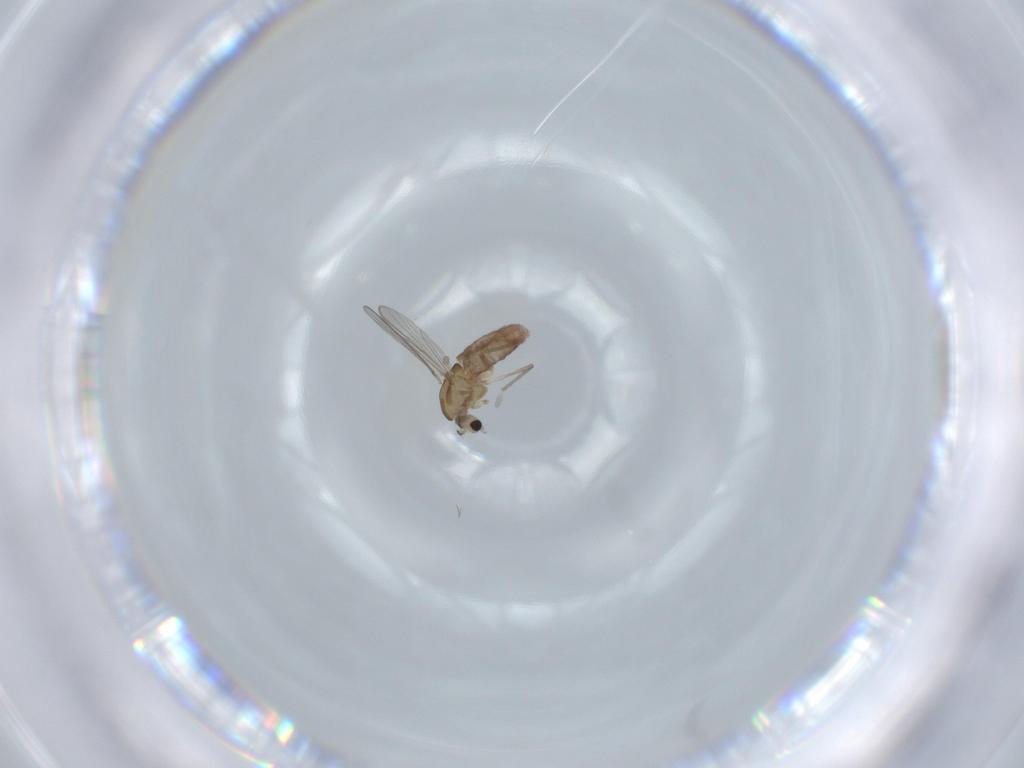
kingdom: Animalia
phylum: Arthropoda
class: Insecta
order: Diptera
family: Chironomidae
